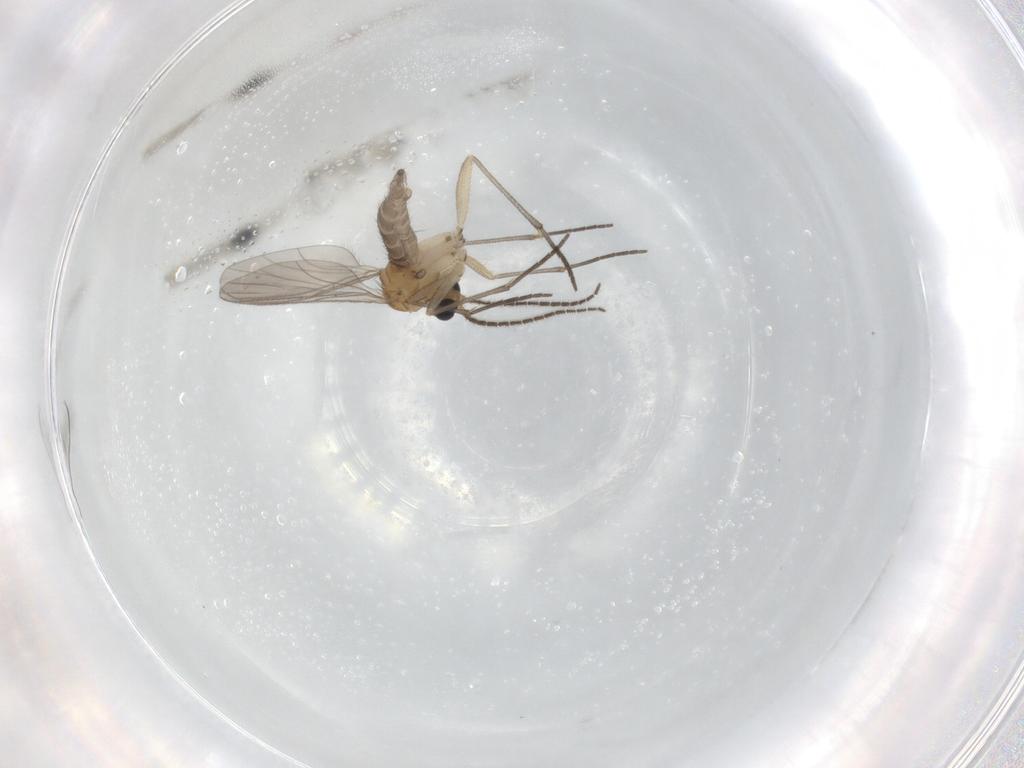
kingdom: Animalia
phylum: Arthropoda
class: Insecta
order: Diptera
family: Sciaridae
